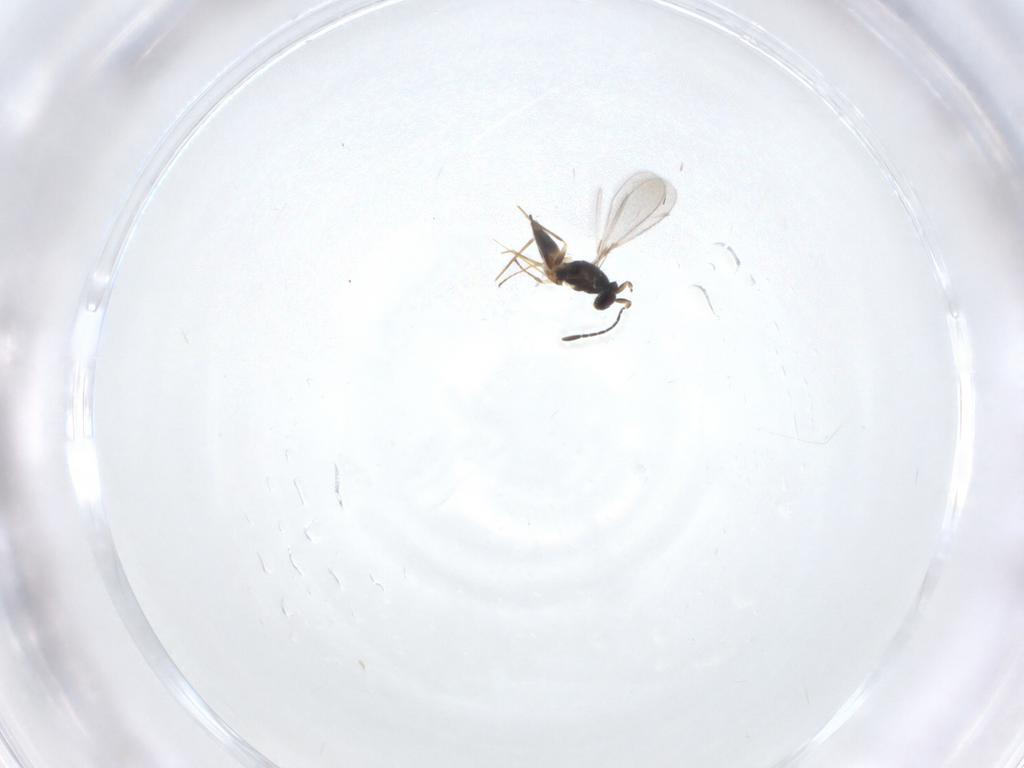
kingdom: Animalia
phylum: Arthropoda
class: Insecta
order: Hymenoptera
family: Mymaridae
